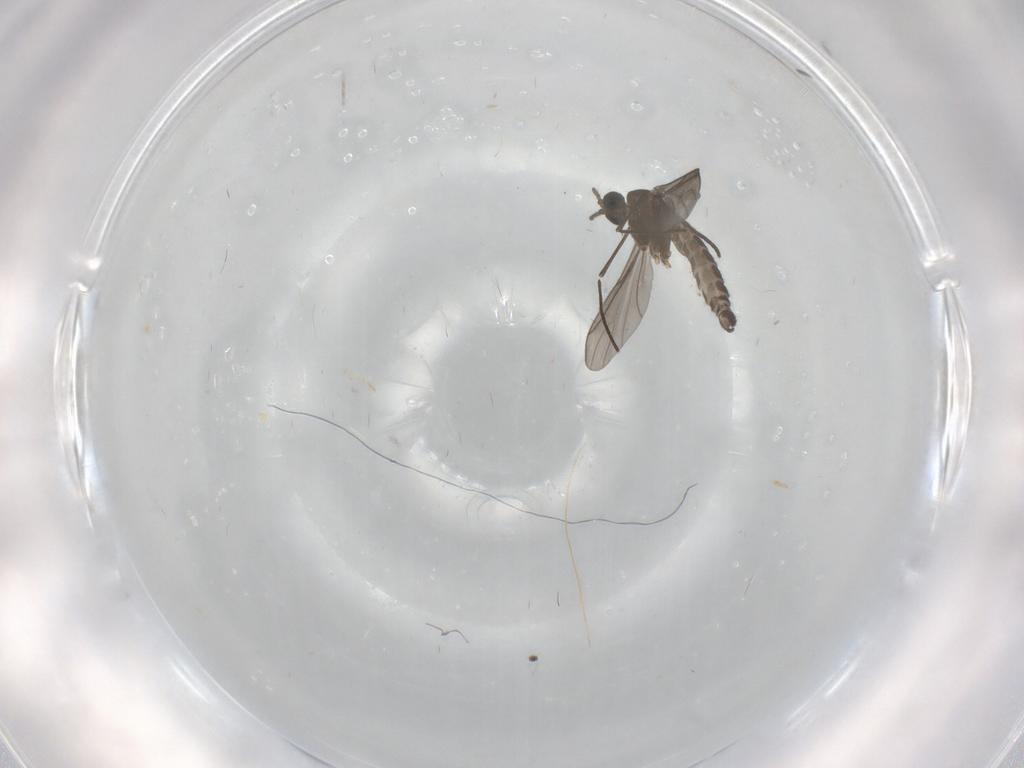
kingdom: Animalia
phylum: Arthropoda
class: Insecta
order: Diptera
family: Sciaridae
